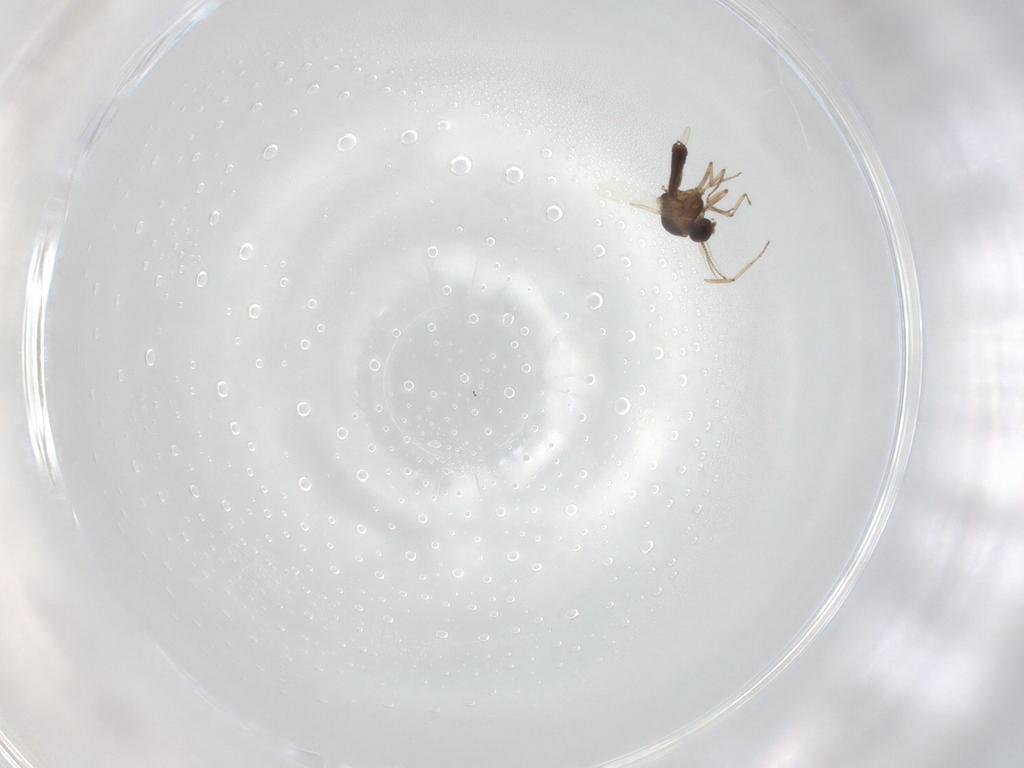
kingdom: Animalia
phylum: Arthropoda
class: Insecta
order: Diptera
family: Ceratopogonidae
